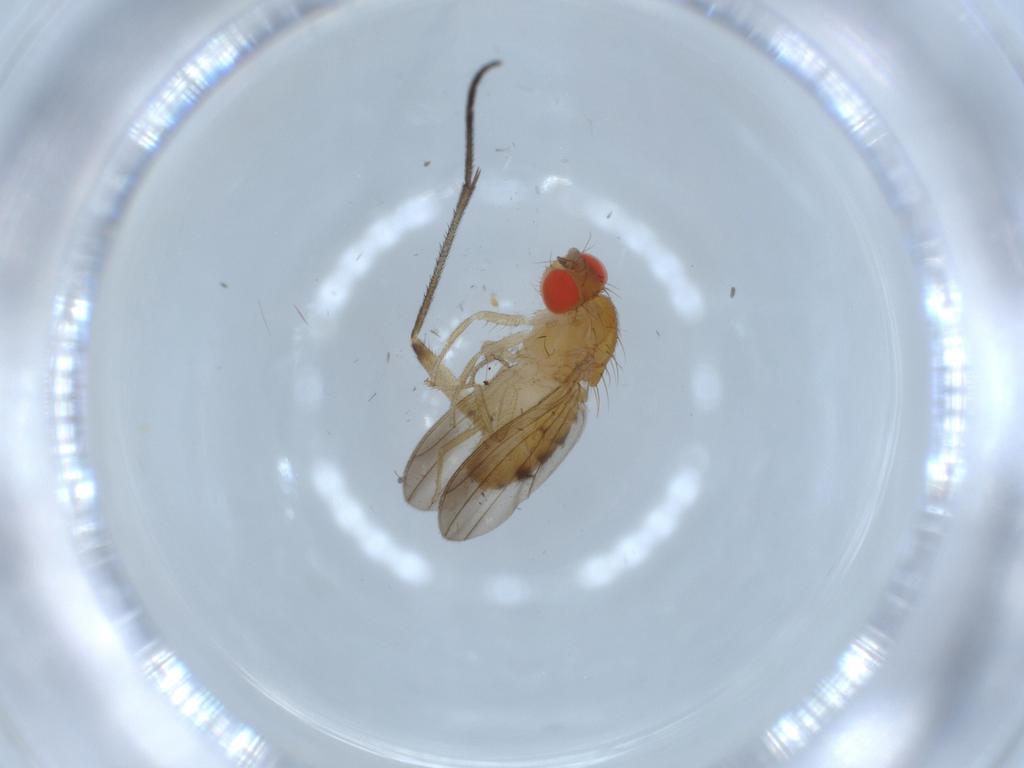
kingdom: Animalia
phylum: Arthropoda
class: Insecta
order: Diptera
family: Drosophilidae
